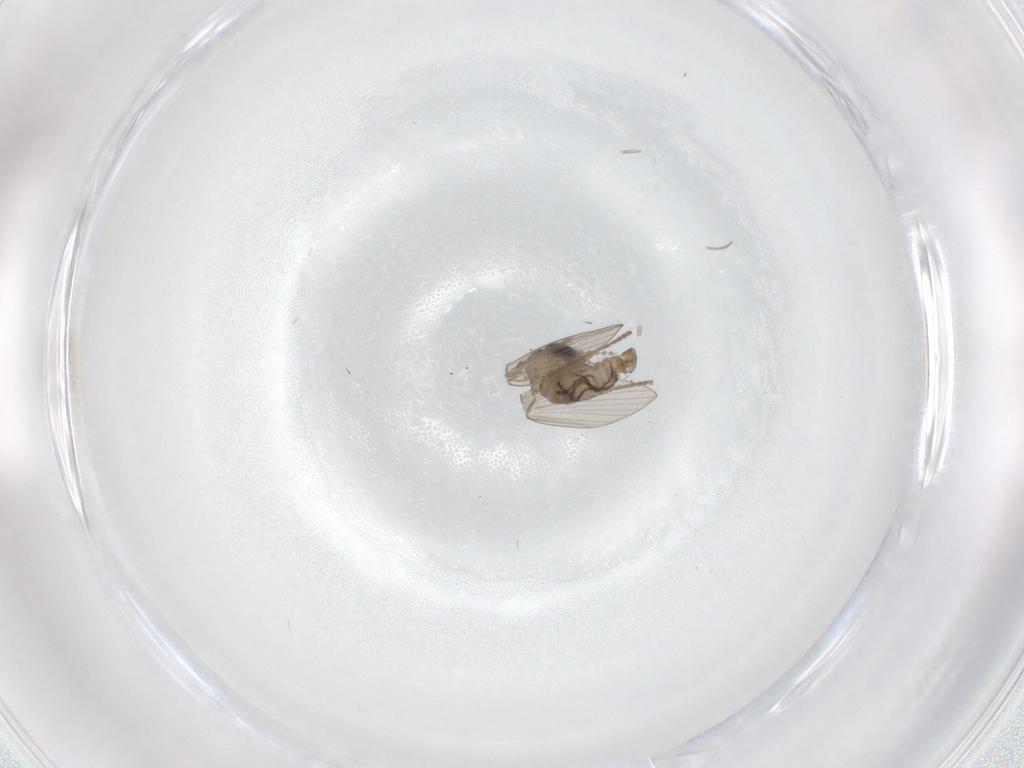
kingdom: Animalia
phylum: Arthropoda
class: Insecta
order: Diptera
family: Psychodidae
